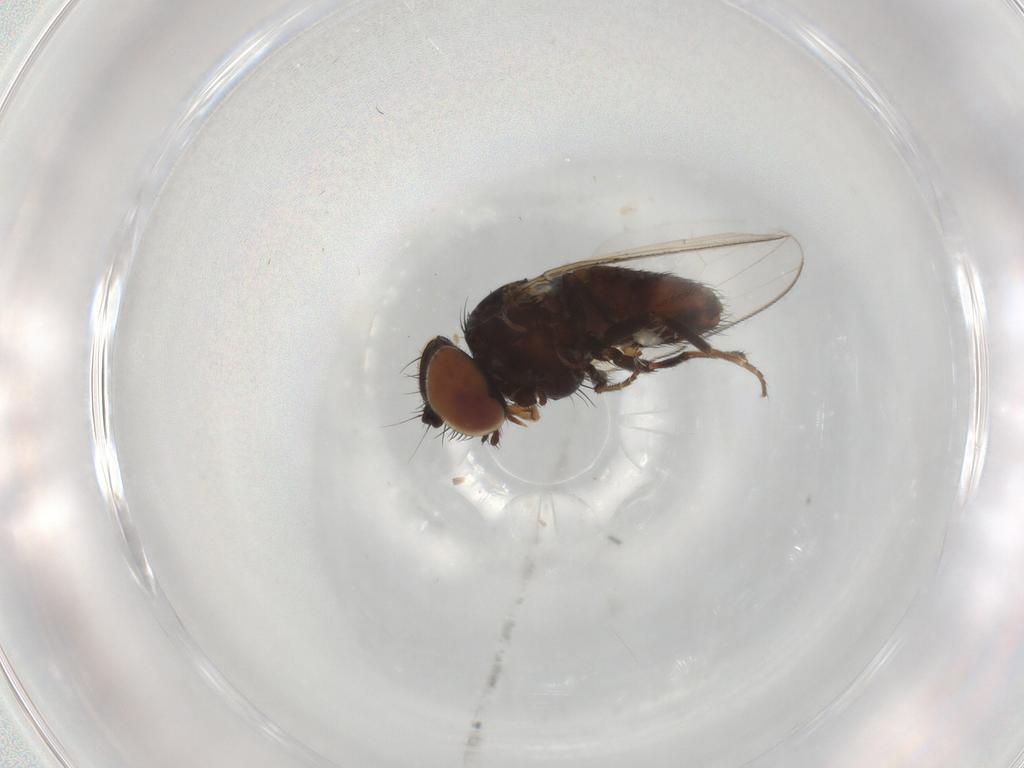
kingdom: Animalia
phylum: Arthropoda
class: Insecta
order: Diptera
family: Milichiidae
